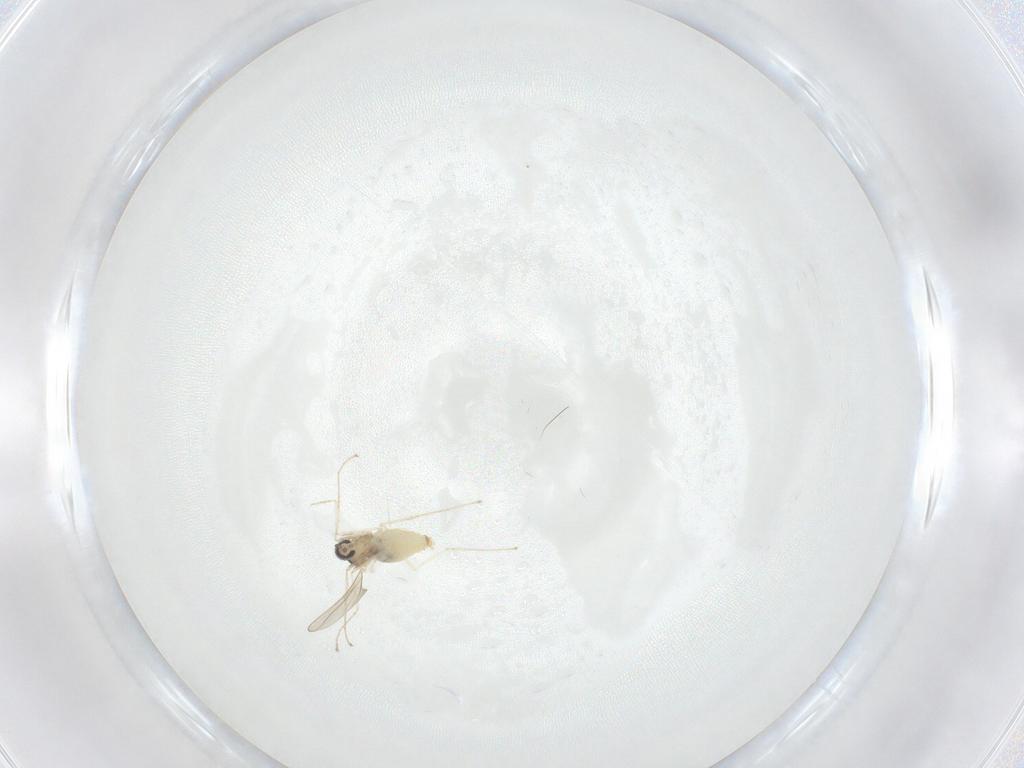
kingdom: Animalia
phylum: Arthropoda
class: Insecta
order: Diptera
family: Cecidomyiidae
